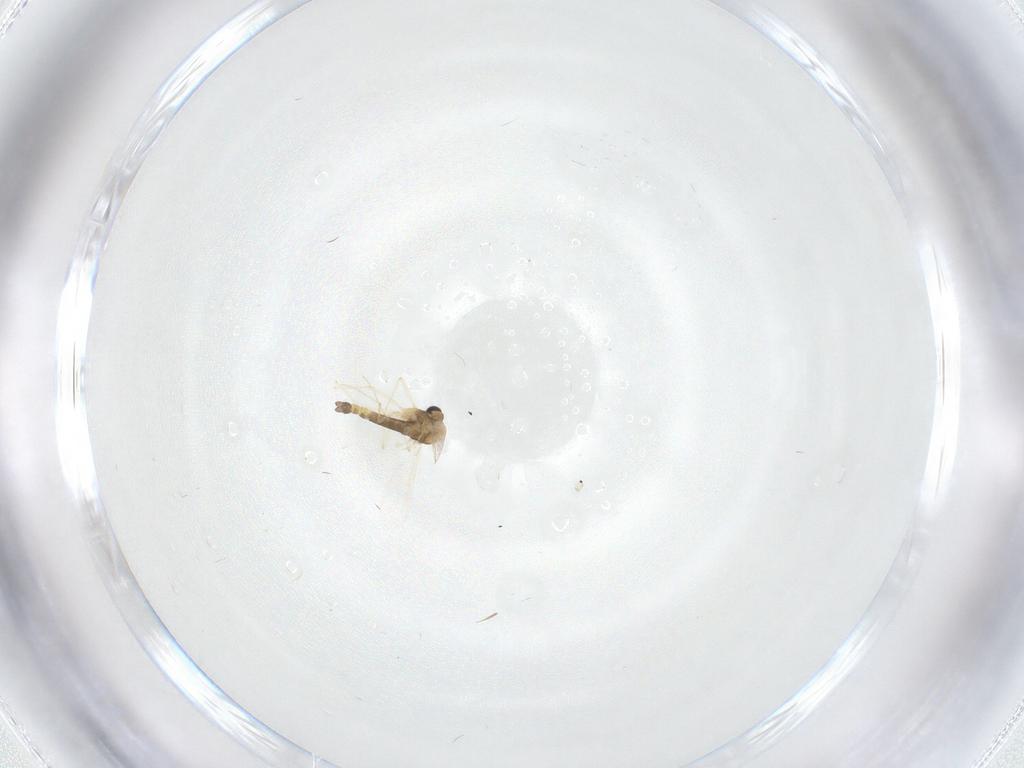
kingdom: Animalia
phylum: Arthropoda
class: Insecta
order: Diptera
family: Chironomidae
